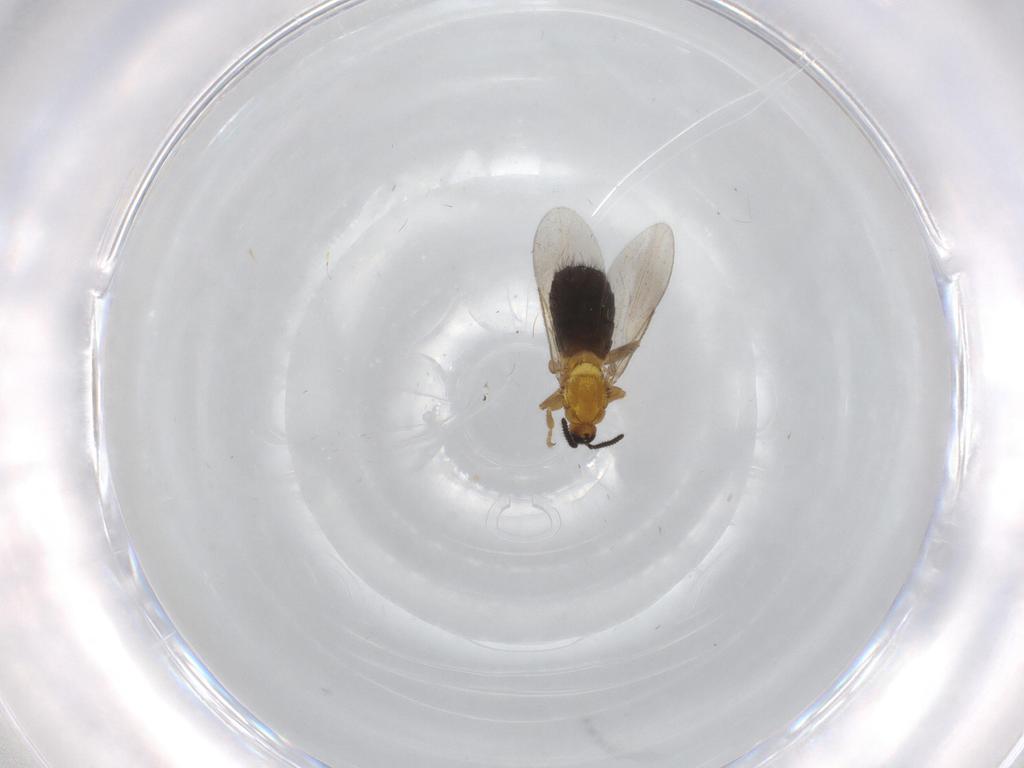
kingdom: Animalia
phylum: Arthropoda
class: Insecta
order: Diptera
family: Scatopsidae
